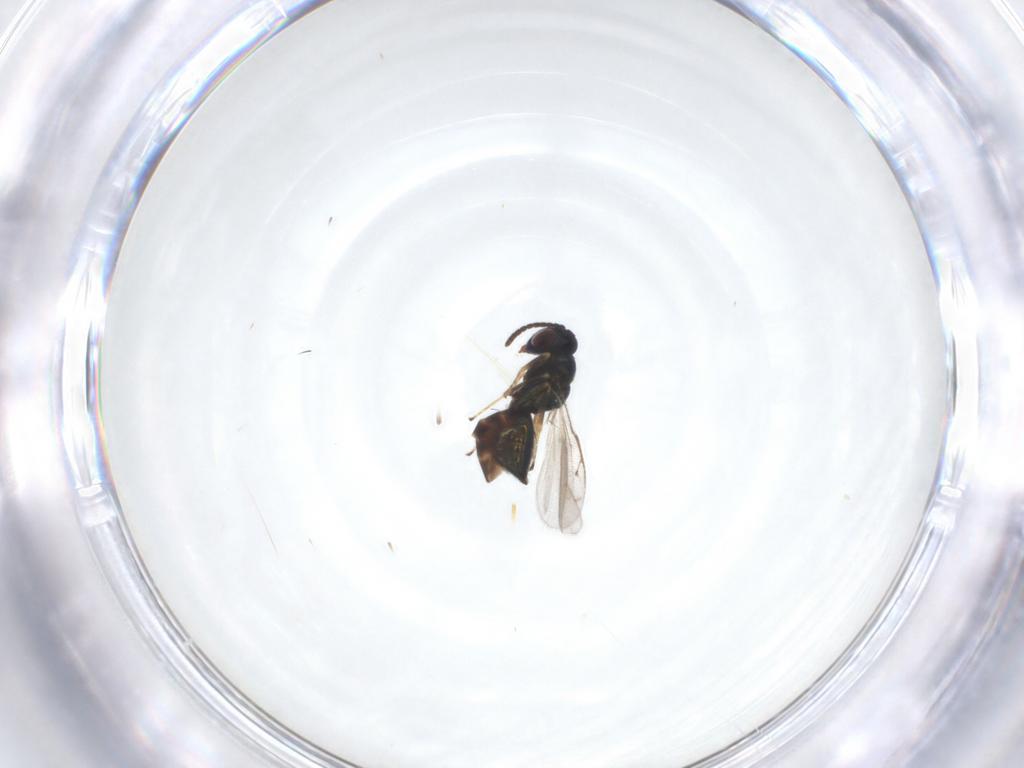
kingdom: Animalia
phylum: Arthropoda
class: Insecta
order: Hymenoptera
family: Pteromalidae
